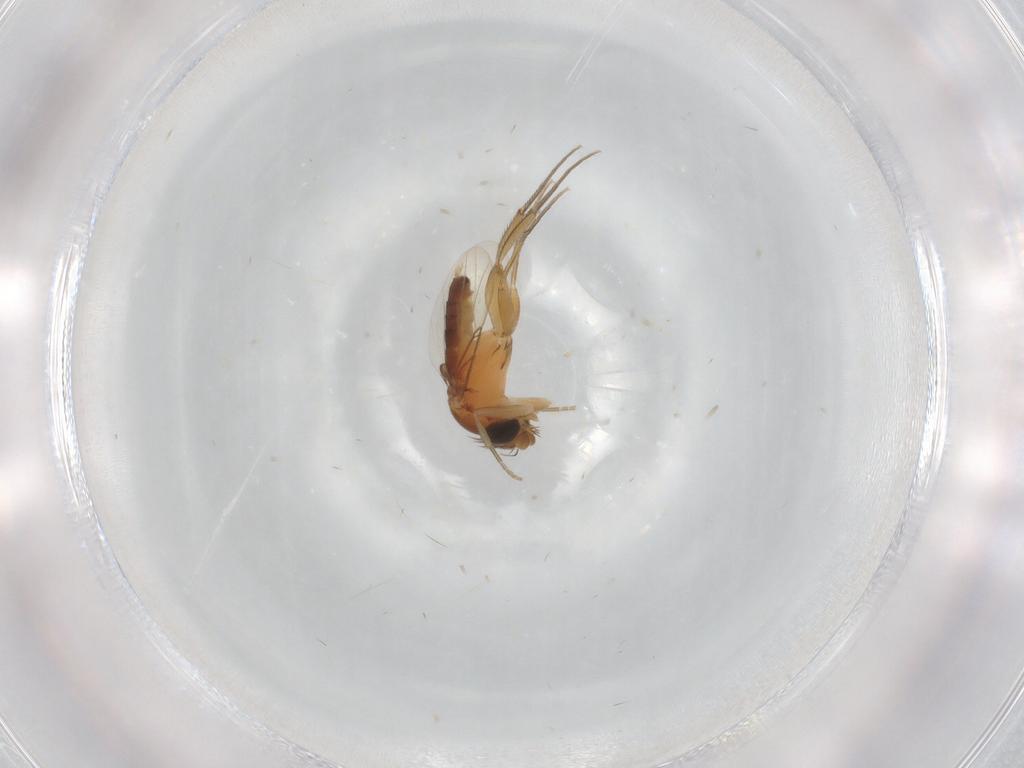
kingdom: Animalia
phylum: Arthropoda
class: Insecta
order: Diptera
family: Phoridae
